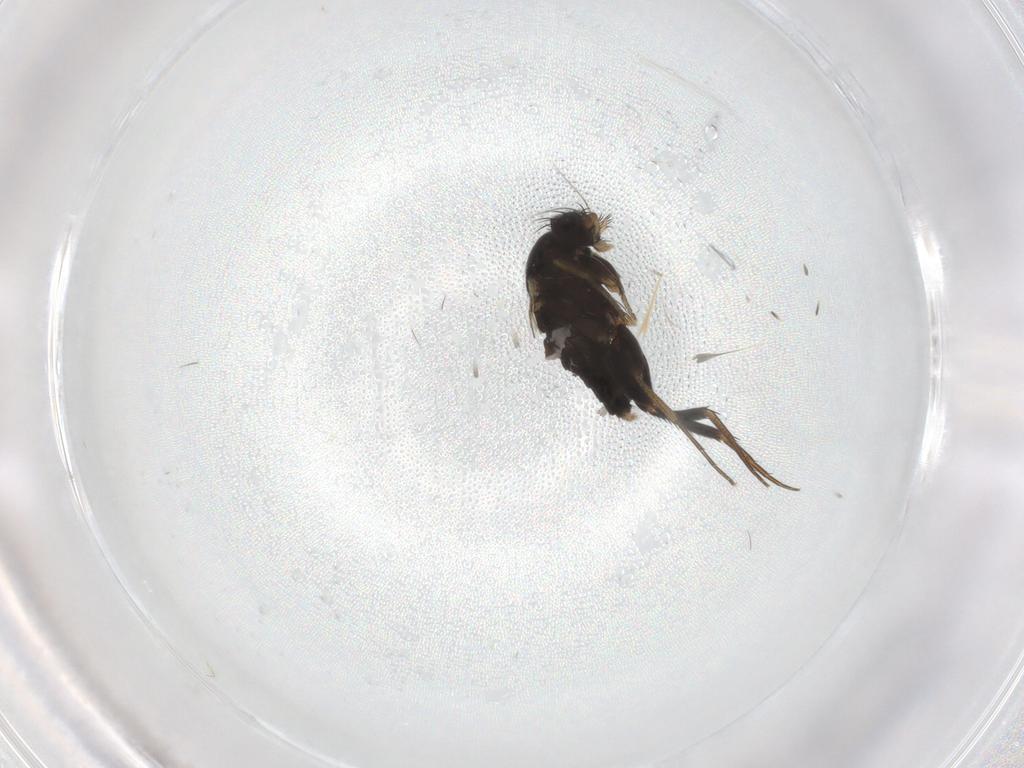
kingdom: Animalia
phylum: Arthropoda
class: Insecta
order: Diptera
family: Phoridae
